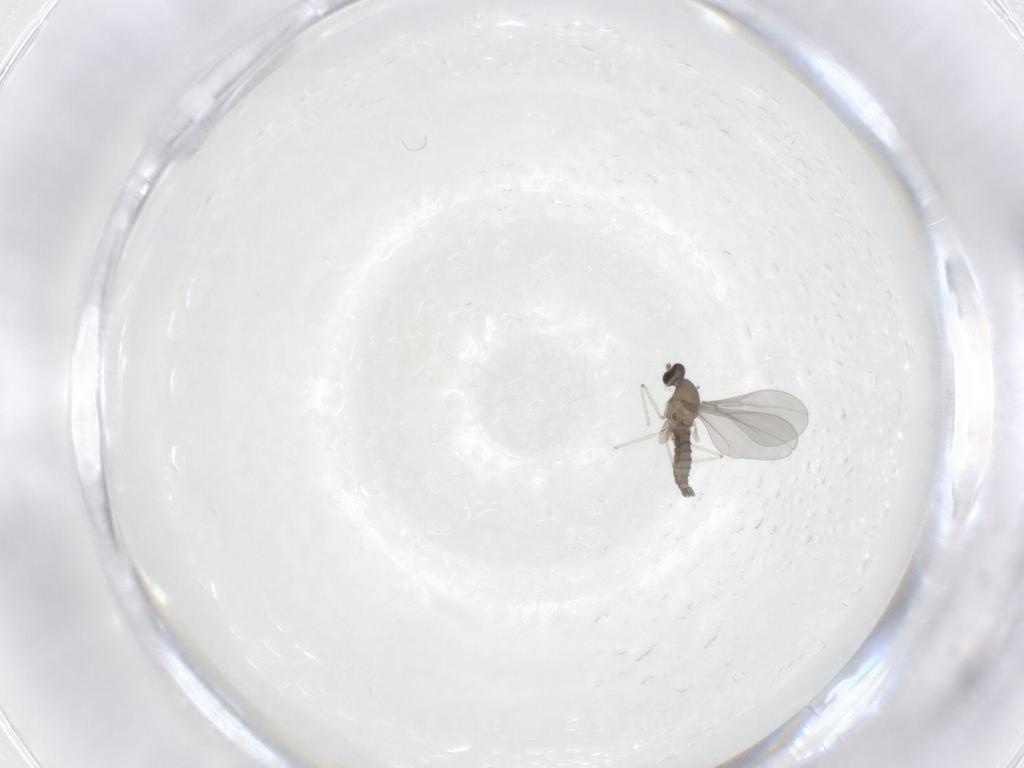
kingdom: Animalia
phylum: Arthropoda
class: Insecta
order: Diptera
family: Cecidomyiidae
